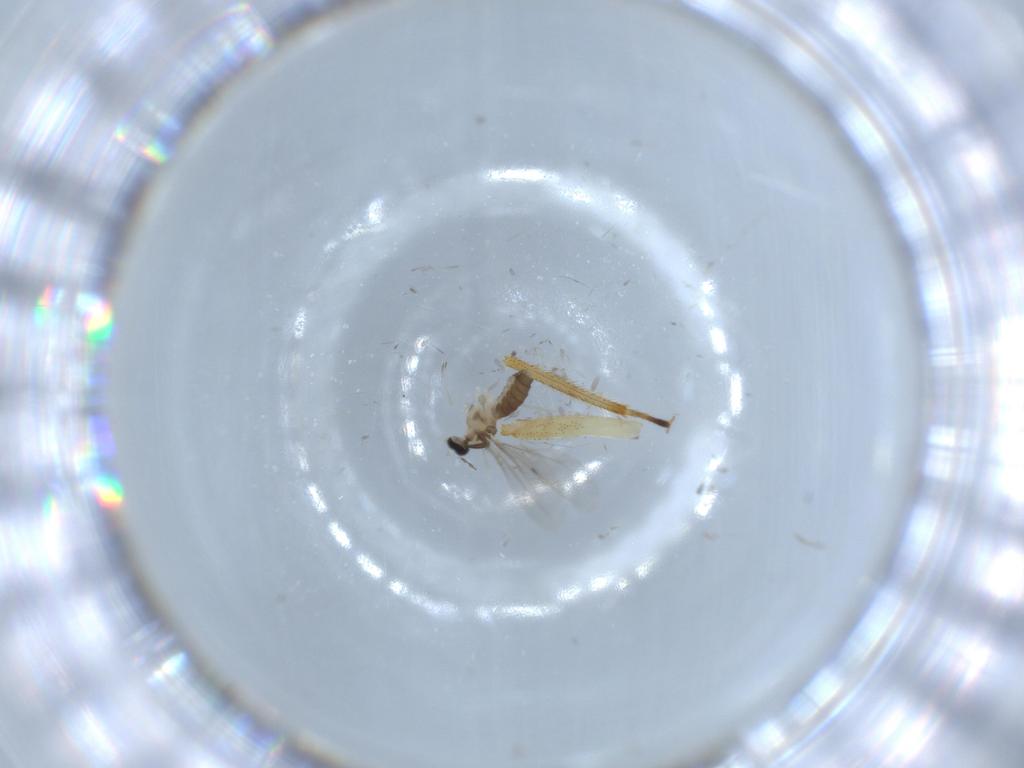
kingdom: Animalia
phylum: Arthropoda
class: Insecta
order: Diptera
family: Cecidomyiidae
